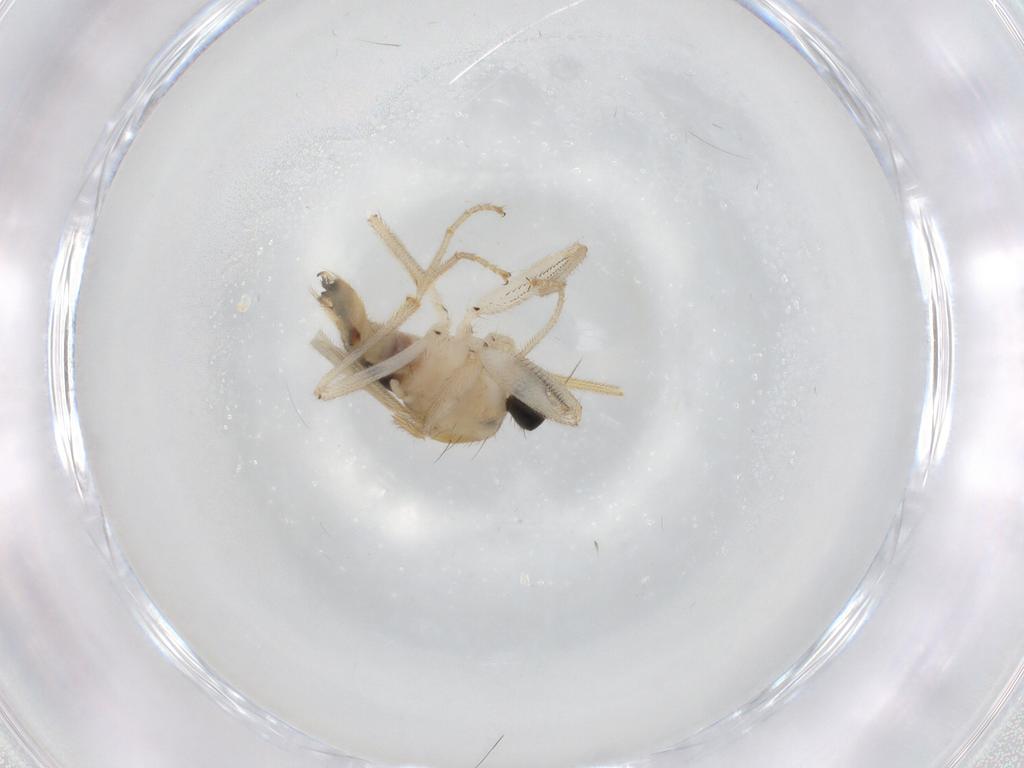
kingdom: Animalia
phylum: Arthropoda
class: Insecta
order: Diptera
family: Hybotidae
